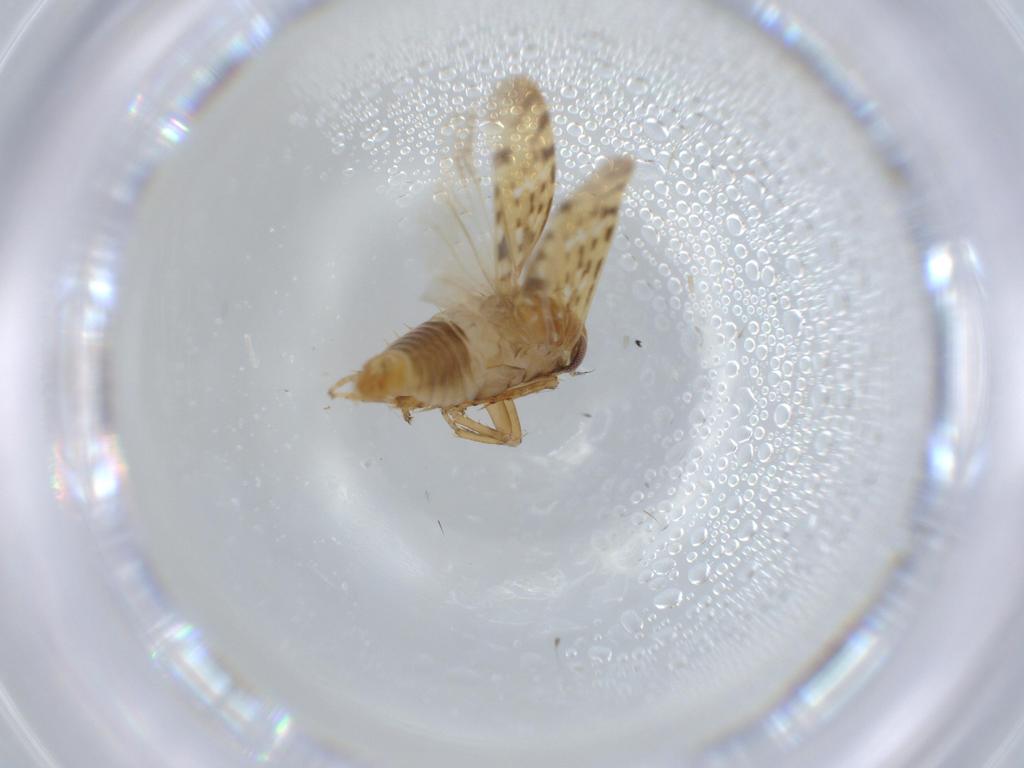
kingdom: Animalia
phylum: Arthropoda
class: Insecta
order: Hemiptera
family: Cicadellidae
